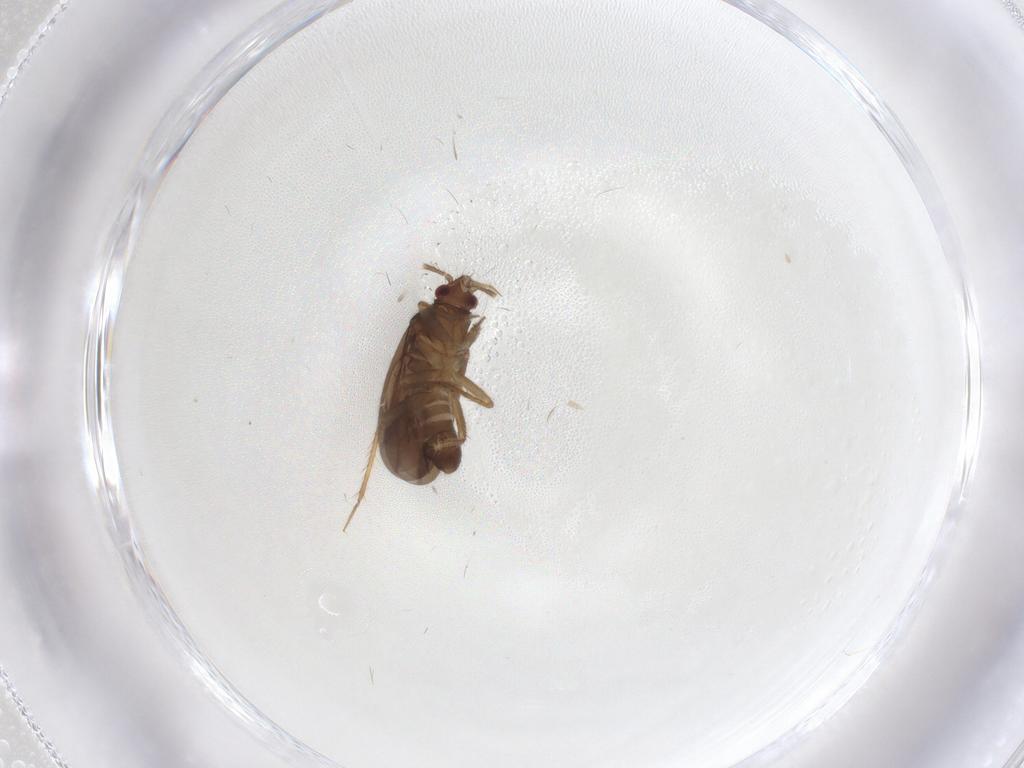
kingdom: Animalia
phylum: Arthropoda
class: Insecta
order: Hemiptera
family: Ceratocombidae
